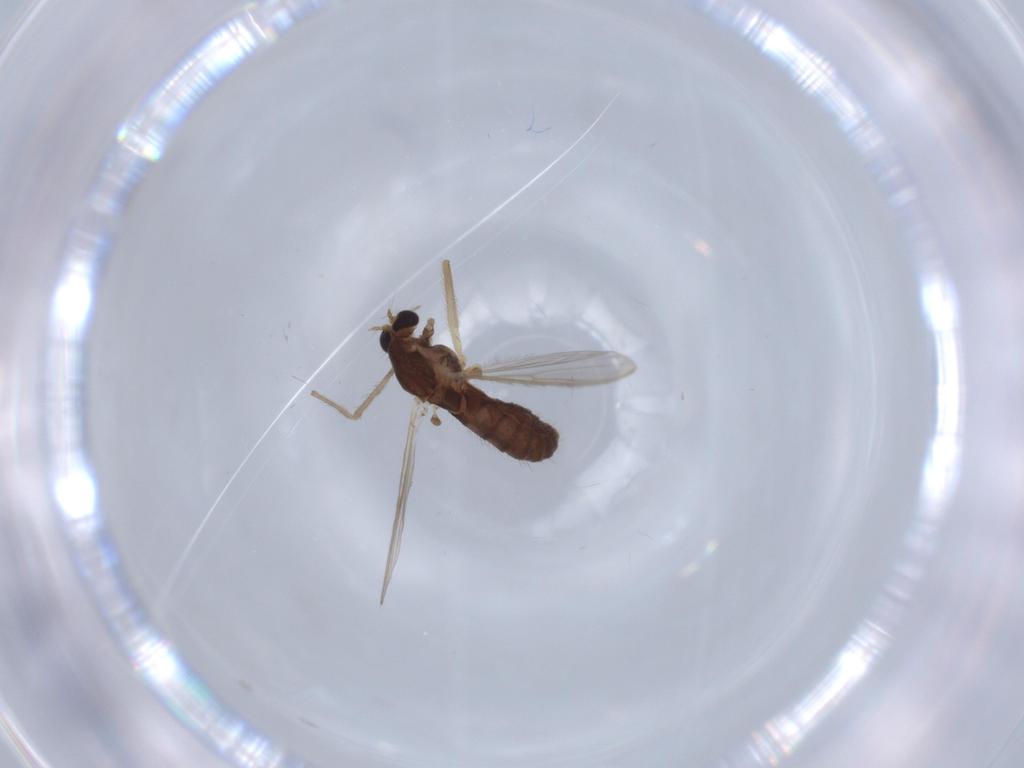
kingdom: Animalia
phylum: Arthropoda
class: Insecta
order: Diptera
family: Chironomidae
